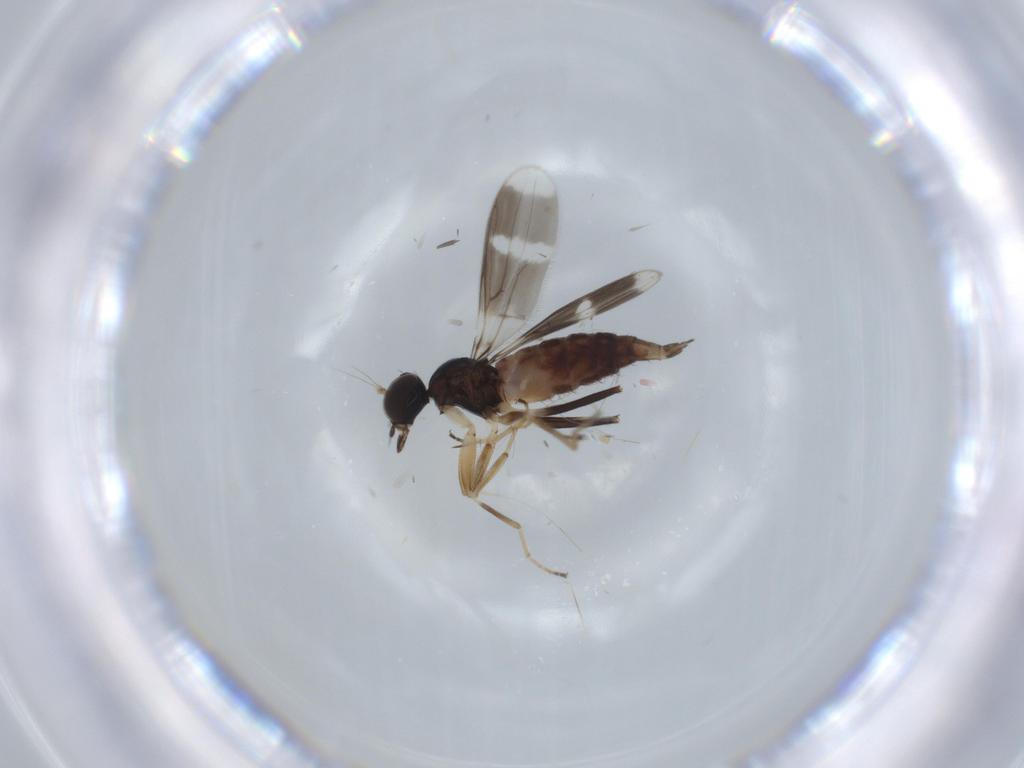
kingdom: Animalia
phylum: Arthropoda
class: Insecta
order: Diptera
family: Hybotidae
